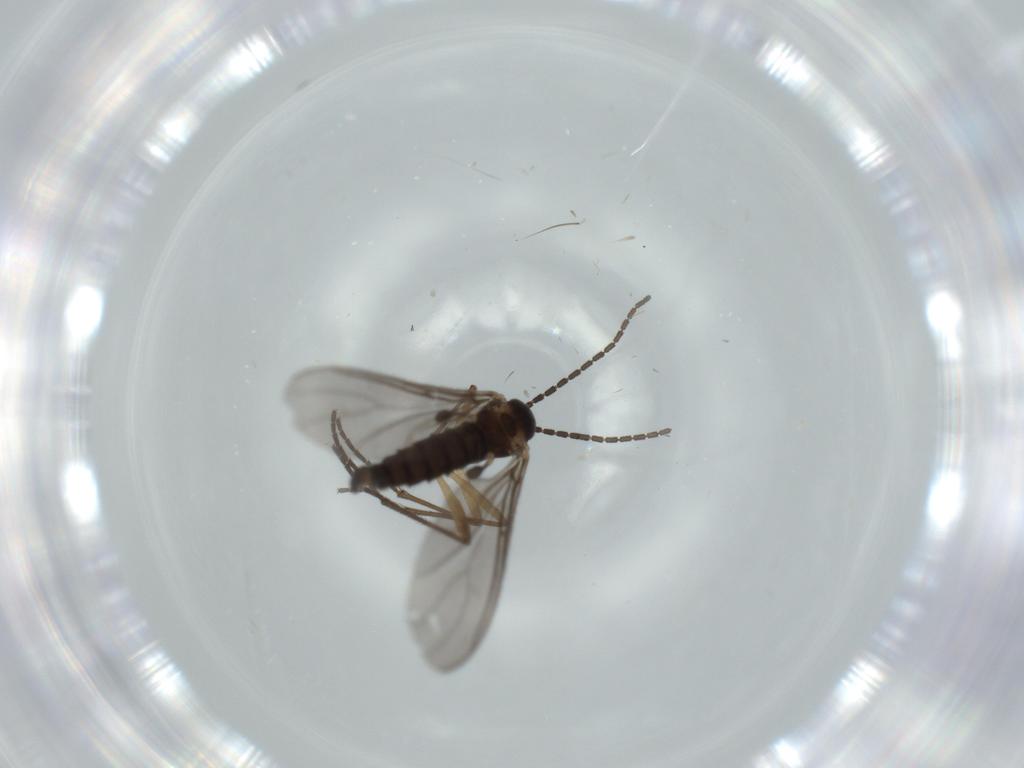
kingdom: Animalia
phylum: Arthropoda
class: Insecta
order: Diptera
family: Sciaridae
